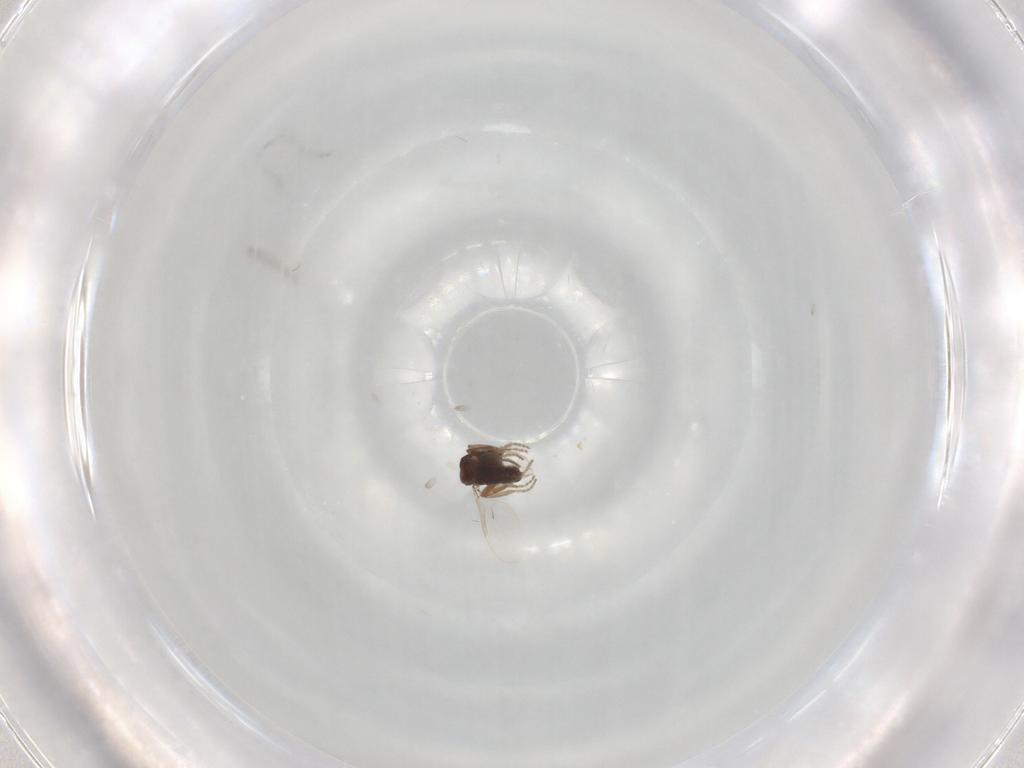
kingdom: Animalia
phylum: Arthropoda
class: Insecta
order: Diptera
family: Ceratopogonidae
